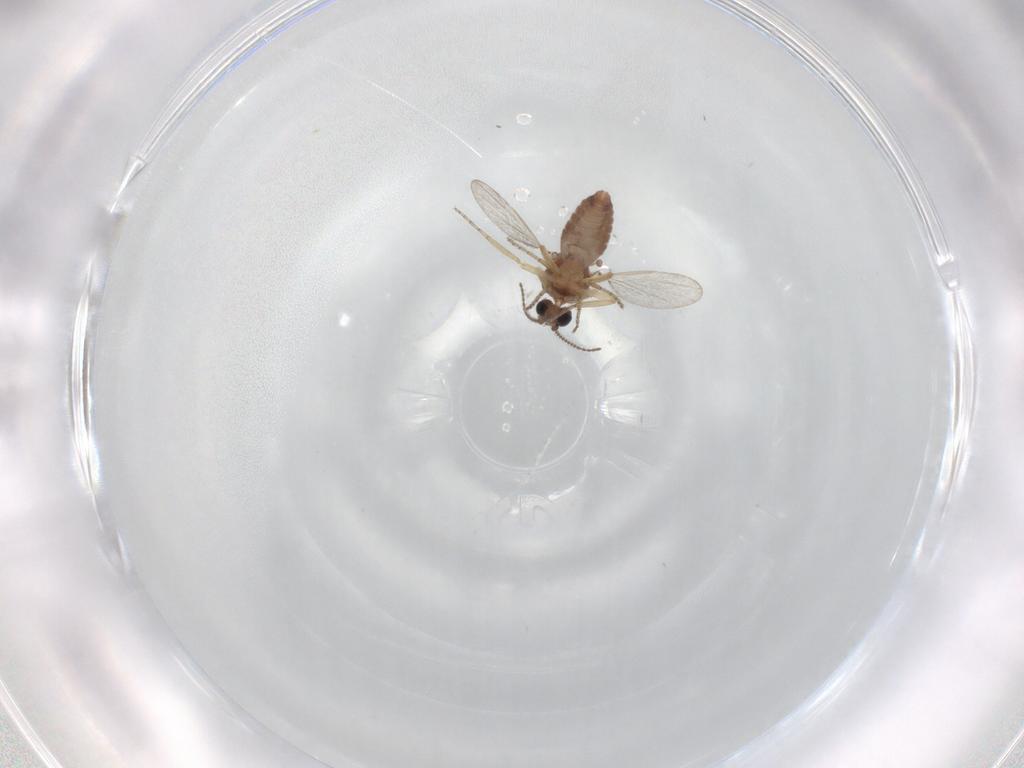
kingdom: Animalia
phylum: Arthropoda
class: Insecta
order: Diptera
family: Ceratopogonidae
